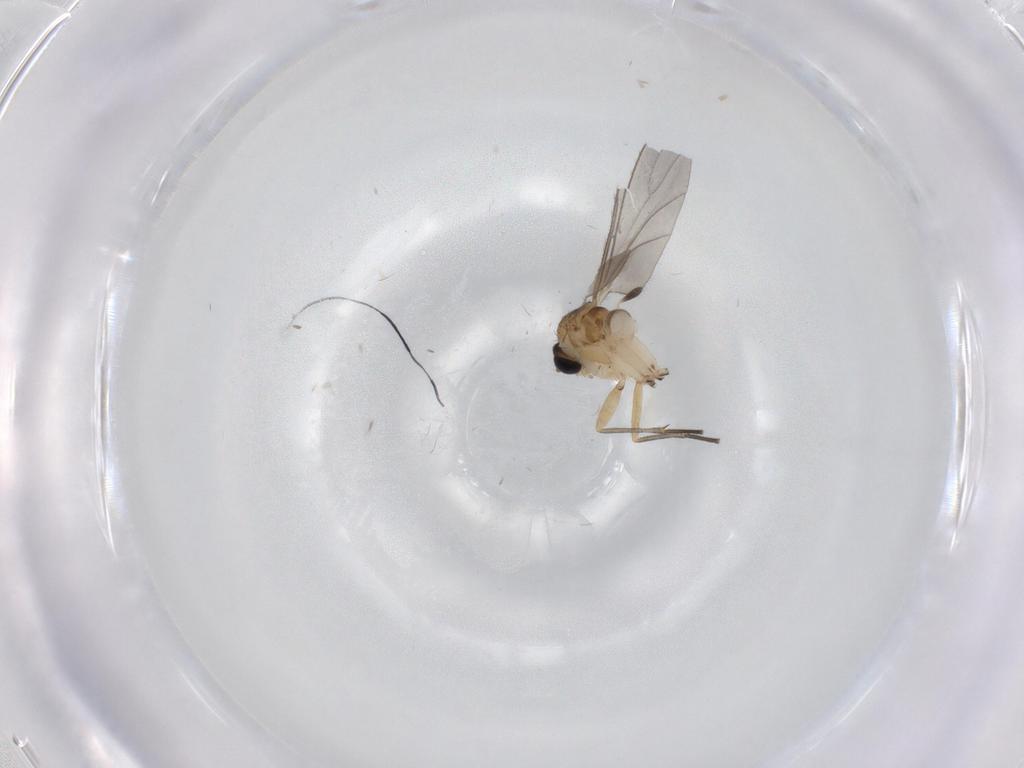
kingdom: Animalia
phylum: Arthropoda
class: Insecta
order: Diptera
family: Sciaridae
